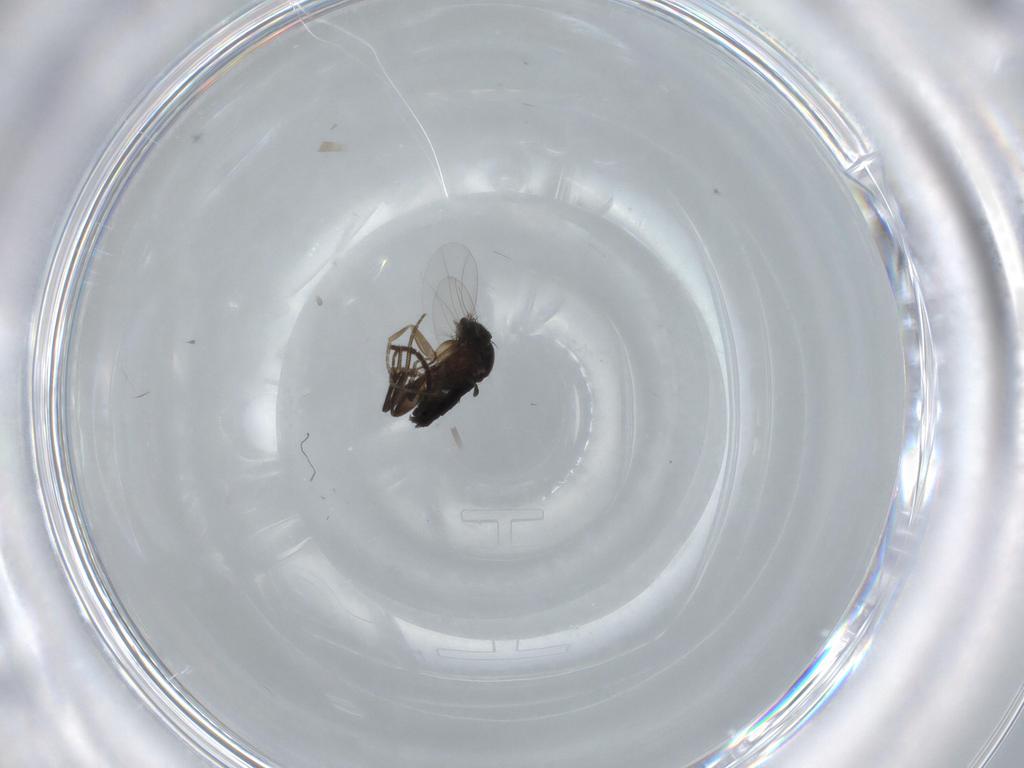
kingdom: Animalia
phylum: Arthropoda
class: Insecta
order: Diptera
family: Phoridae
